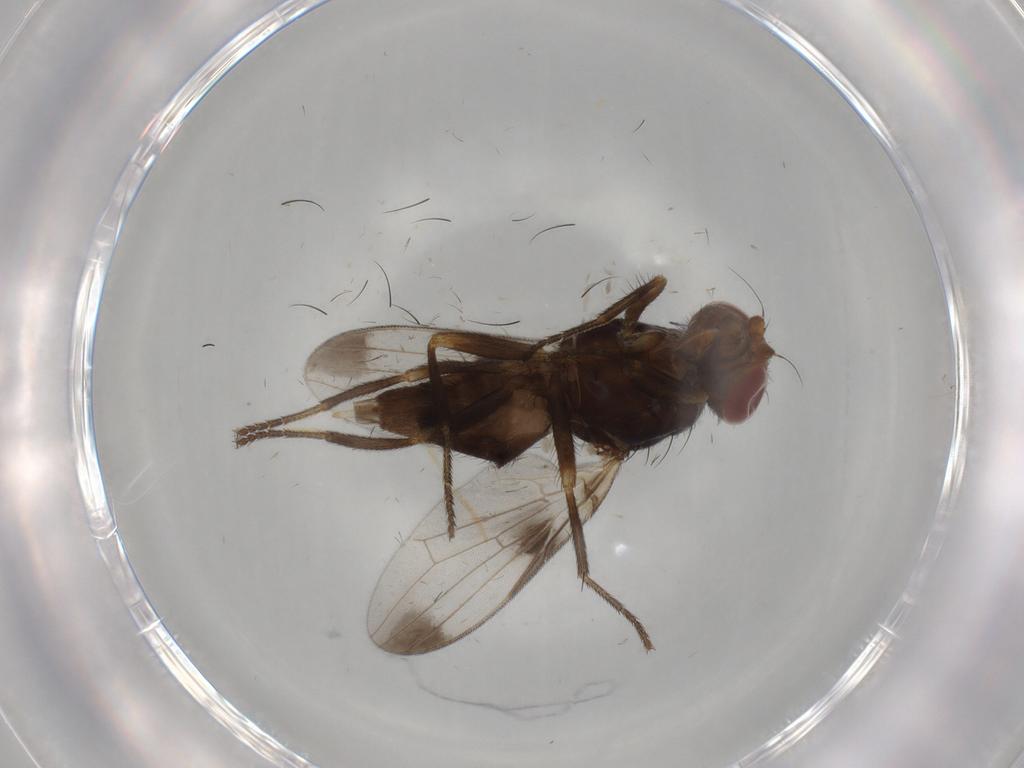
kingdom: Animalia
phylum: Arthropoda
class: Insecta
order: Diptera
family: Ulidiidae
